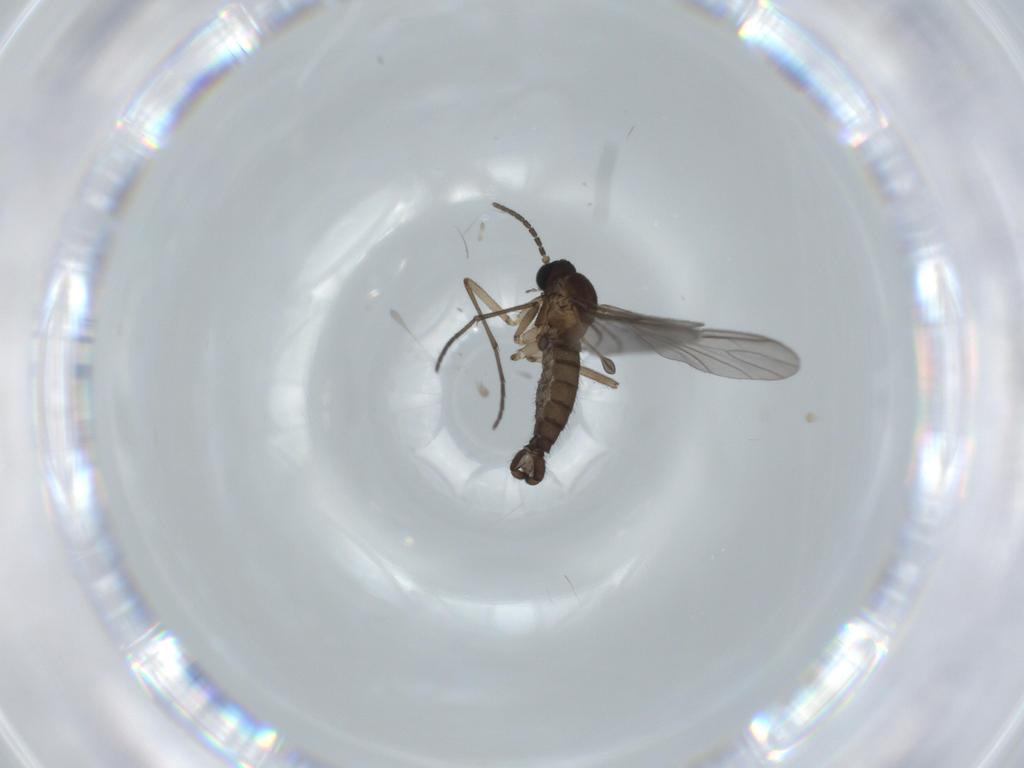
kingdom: Animalia
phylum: Arthropoda
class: Insecta
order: Diptera
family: Sciaridae
